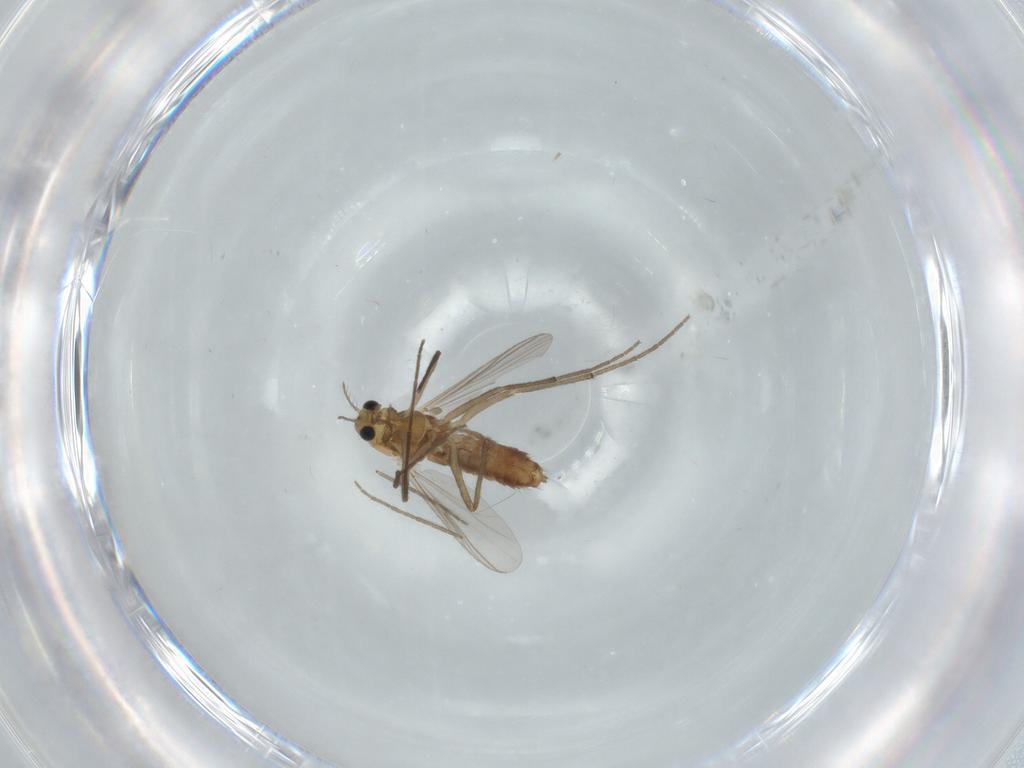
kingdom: Animalia
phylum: Arthropoda
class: Insecta
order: Diptera
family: Chironomidae
